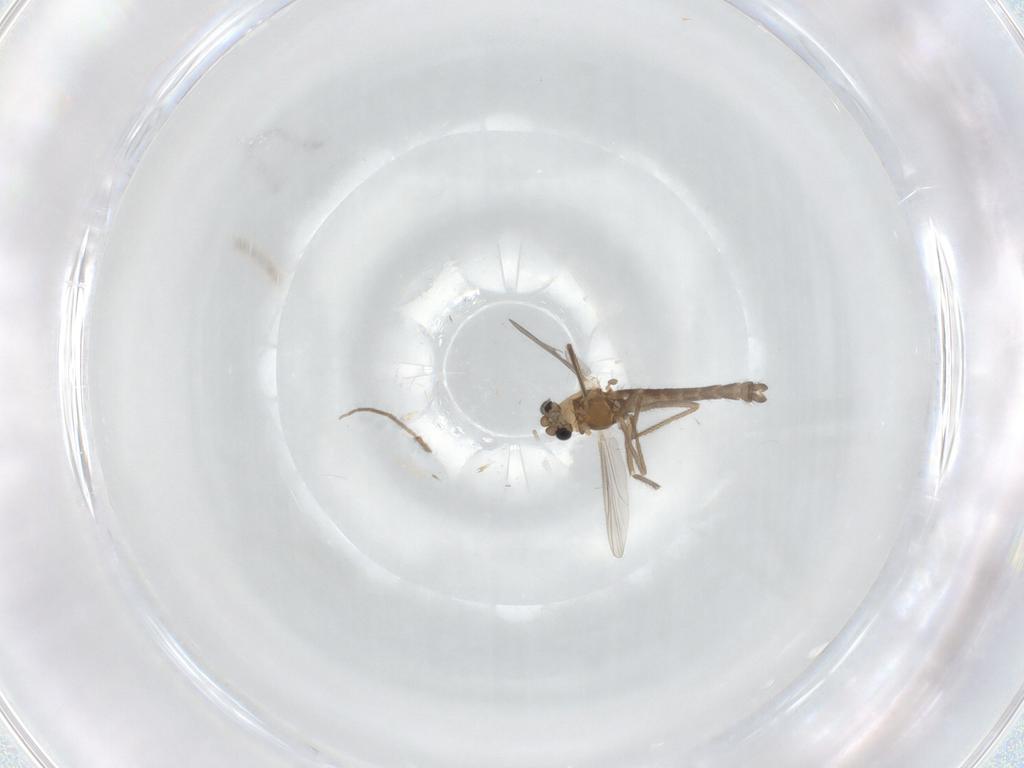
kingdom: Animalia
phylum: Arthropoda
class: Insecta
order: Diptera
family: Chironomidae
